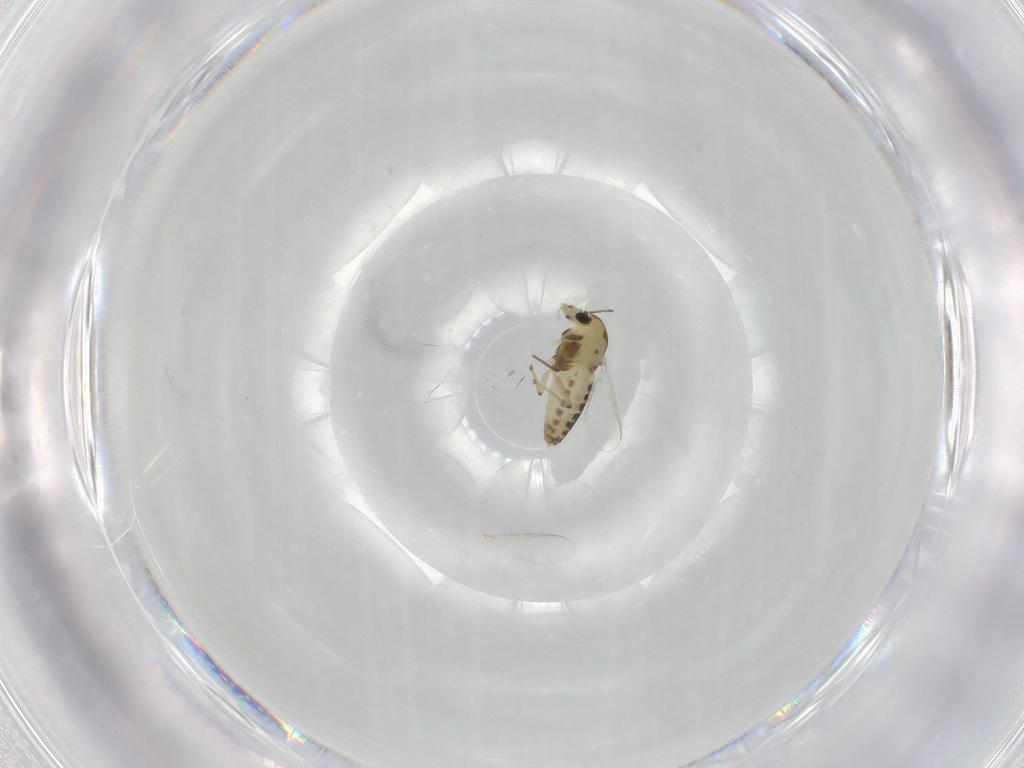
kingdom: Animalia
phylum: Arthropoda
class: Insecta
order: Diptera
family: Chironomidae
